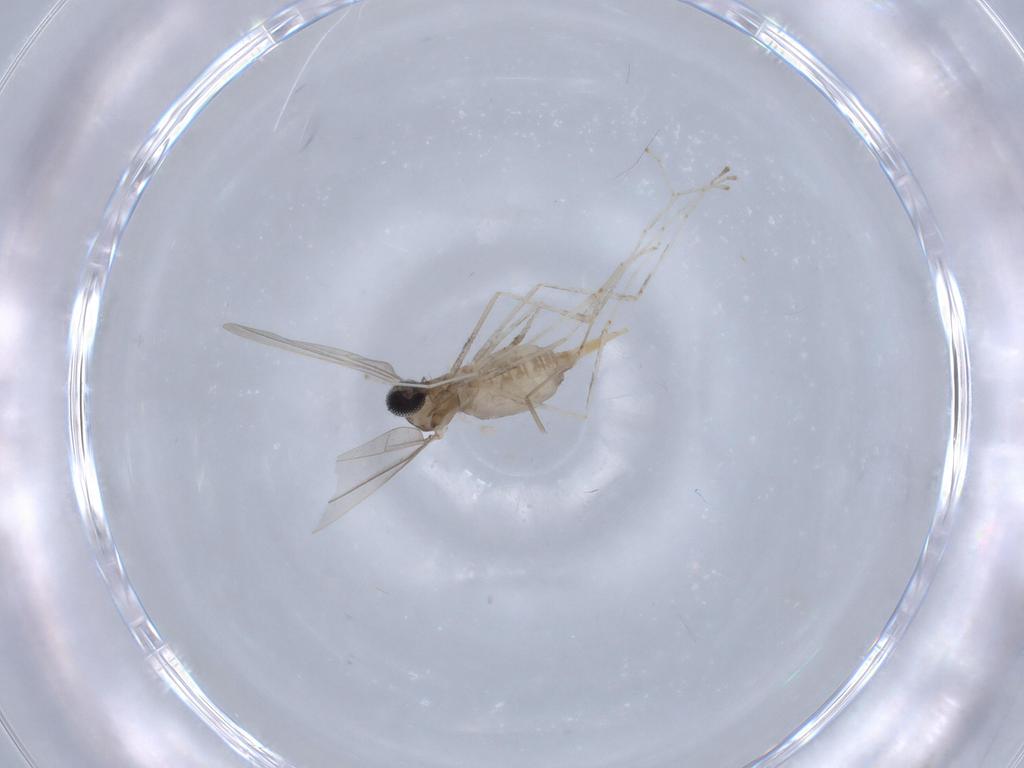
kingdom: Animalia
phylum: Arthropoda
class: Insecta
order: Diptera
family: Cecidomyiidae
